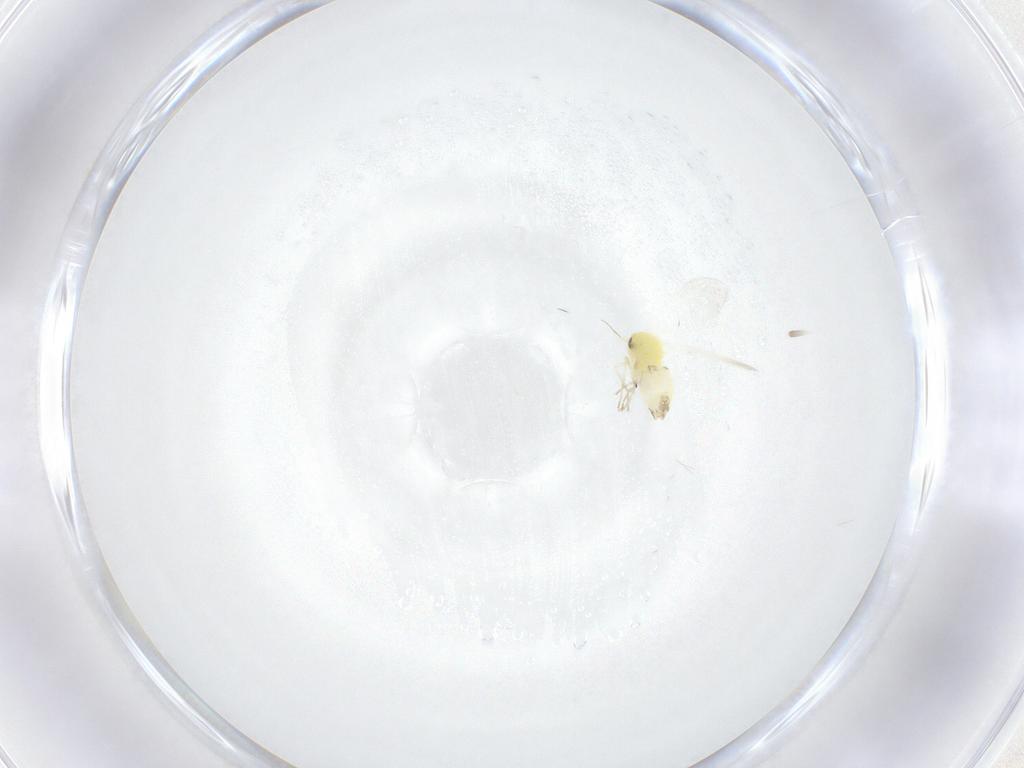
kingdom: Animalia
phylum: Arthropoda
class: Insecta
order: Hemiptera
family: Aleyrodidae
